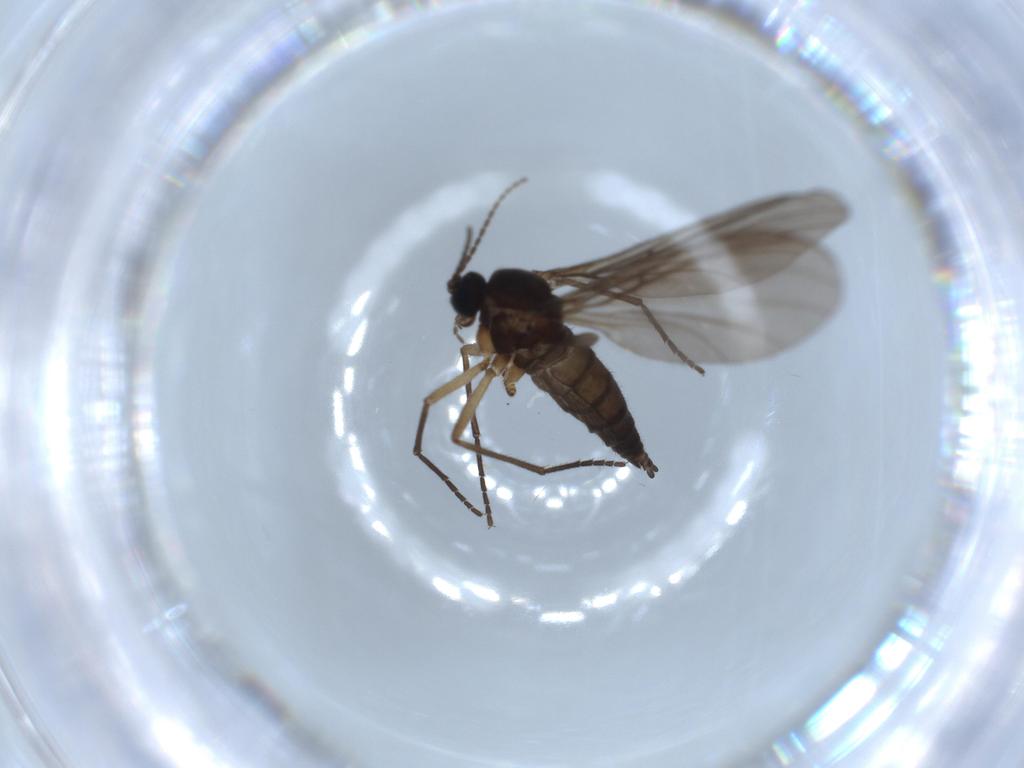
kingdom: Animalia
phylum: Arthropoda
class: Insecta
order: Diptera
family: Sciaridae
